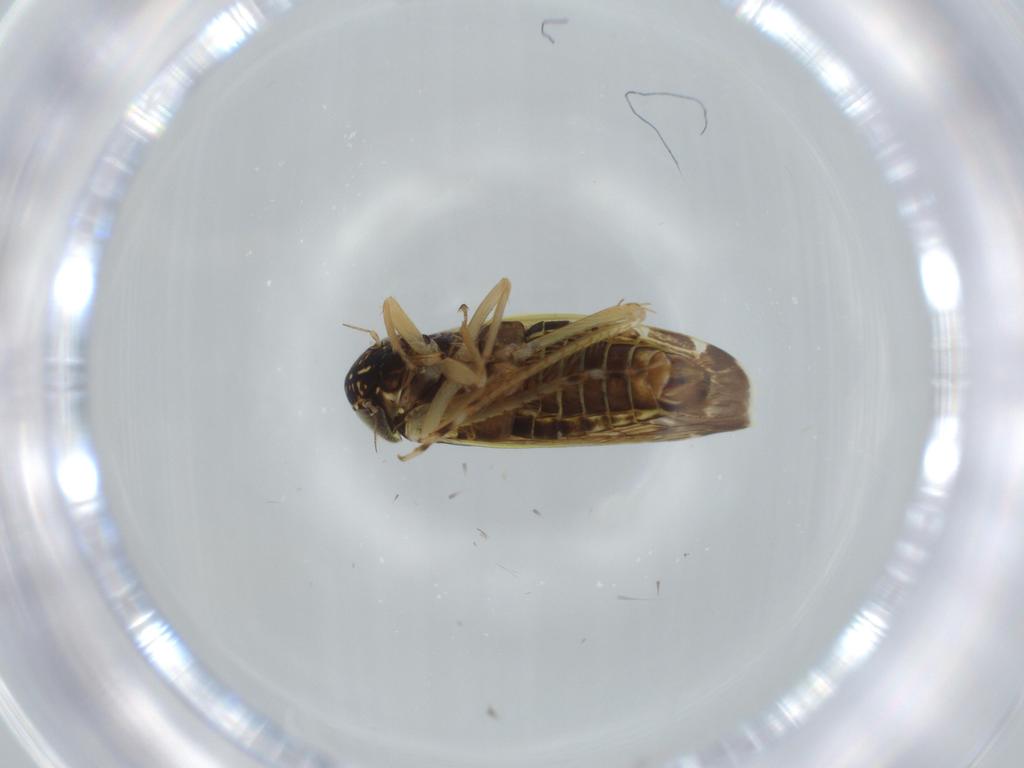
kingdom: Animalia
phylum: Arthropoda
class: Insecta
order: Hemiptera
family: Cicadellidae
